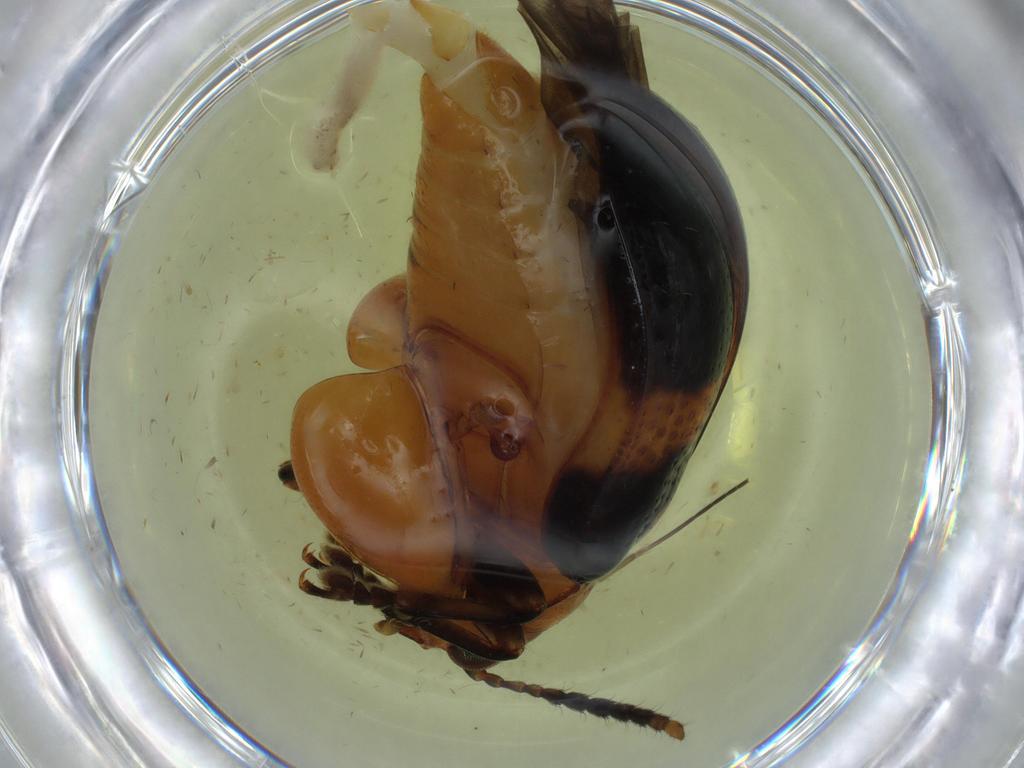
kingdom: Animalia
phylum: Arthropoda
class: Insecta
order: Coleoptera
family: Chrysomelidae
